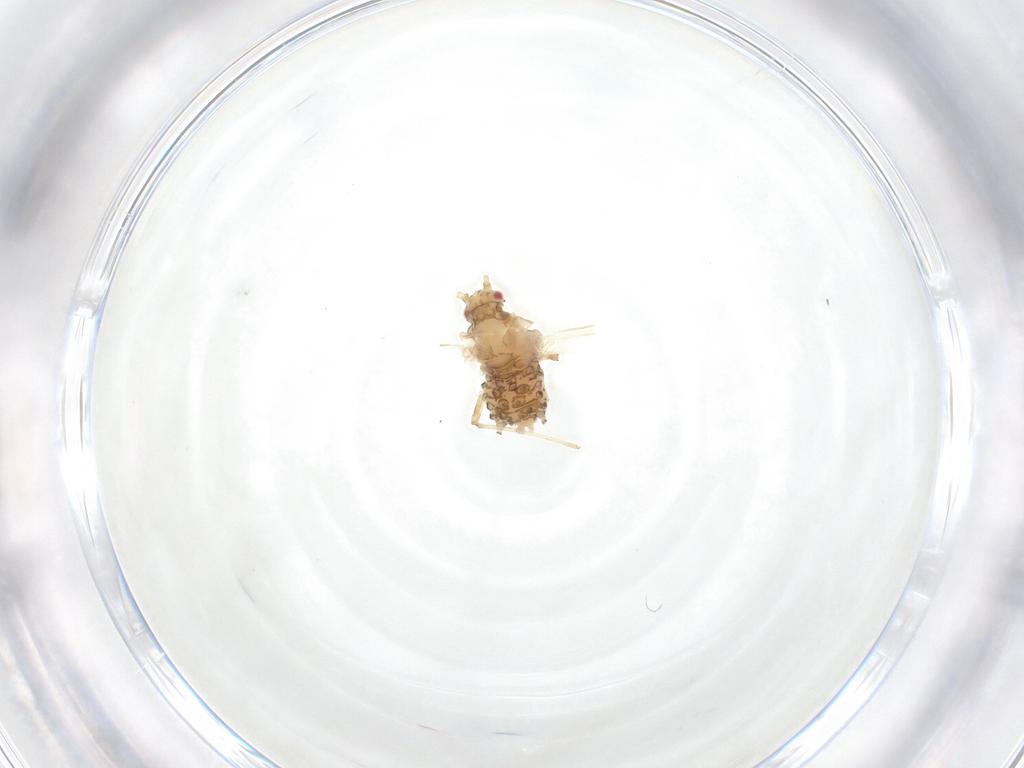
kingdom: Animalia
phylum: Arthropoda
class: Insecta
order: Hemiptera
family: Aphididae
